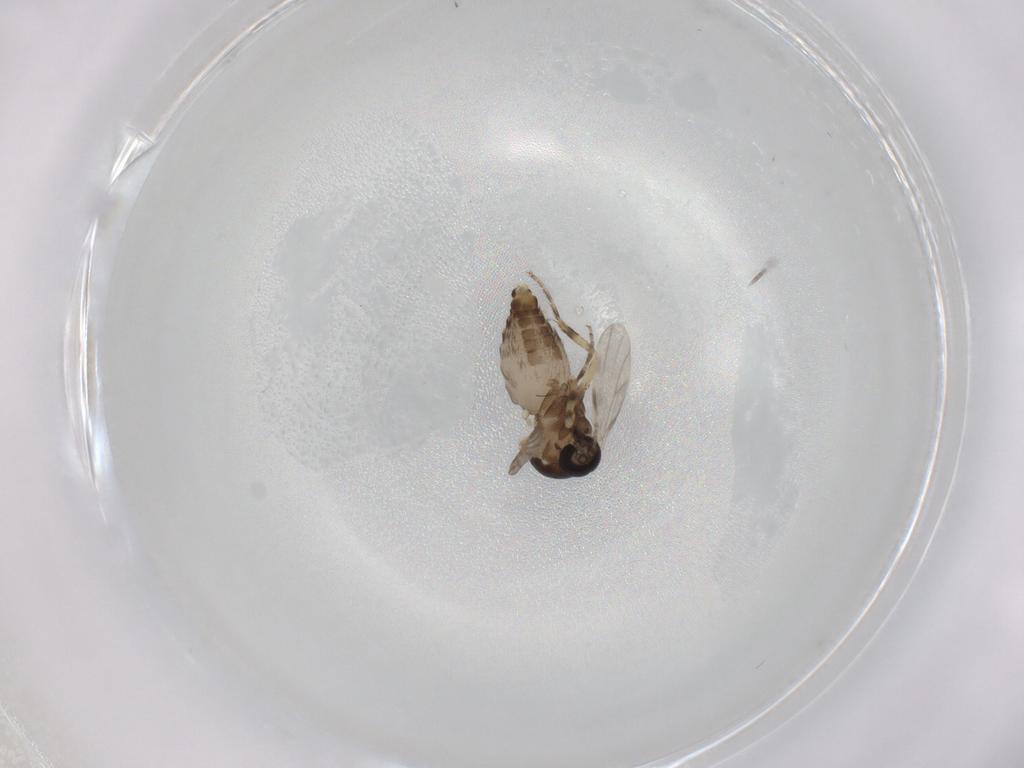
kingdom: Animalia
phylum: Arthropoda
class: Insecta
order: Diptera
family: Ceratopogonidae
